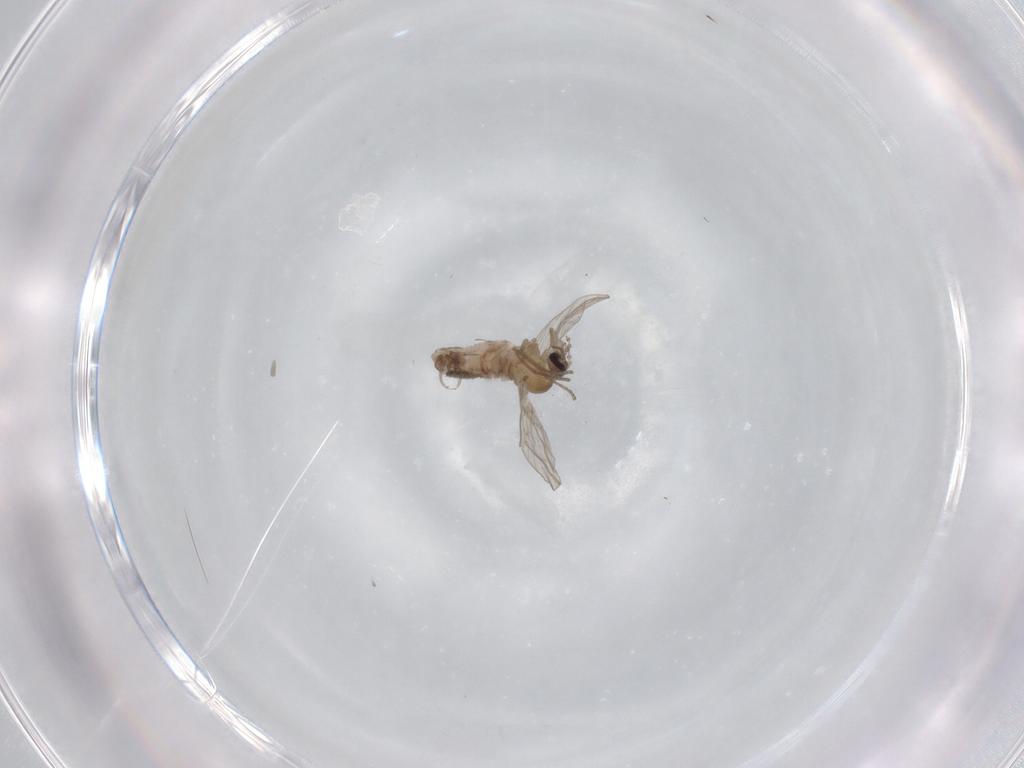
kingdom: Animalia
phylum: Arthropoda
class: Insecta
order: Diptera
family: Psychodidae
